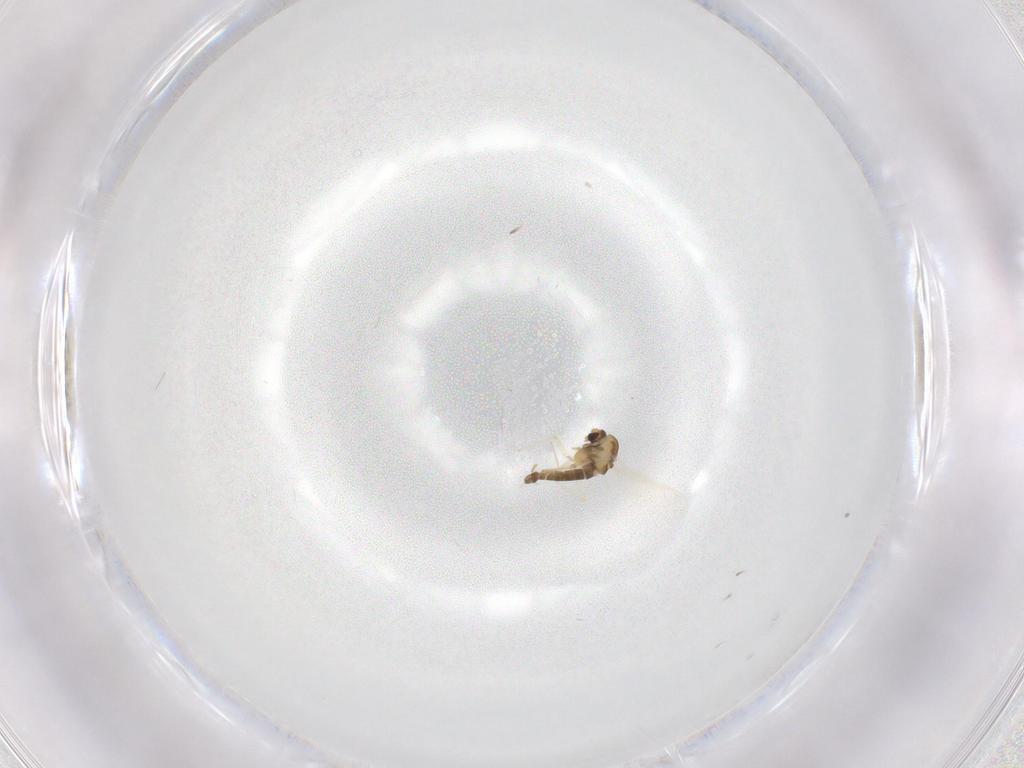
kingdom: Animalia
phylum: Arthropoda
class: Insecta
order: Diptera
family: Chironomidae
